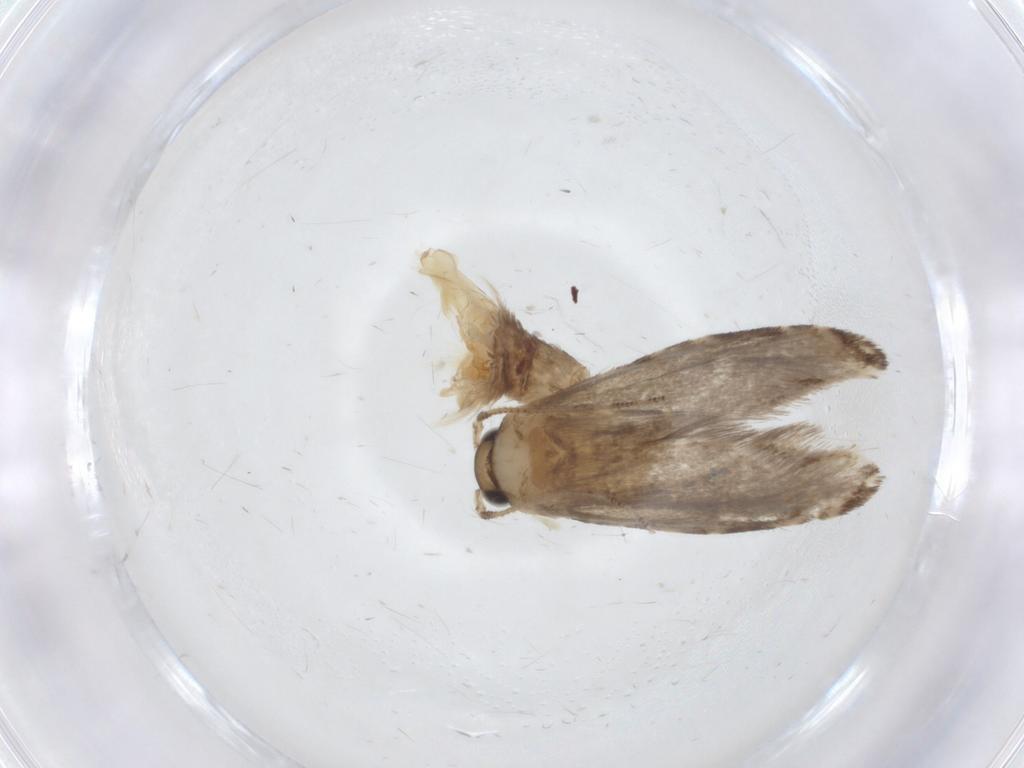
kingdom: Animalia
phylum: Arthropoda
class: Insecta
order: Lepidoptera
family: Tineidae
